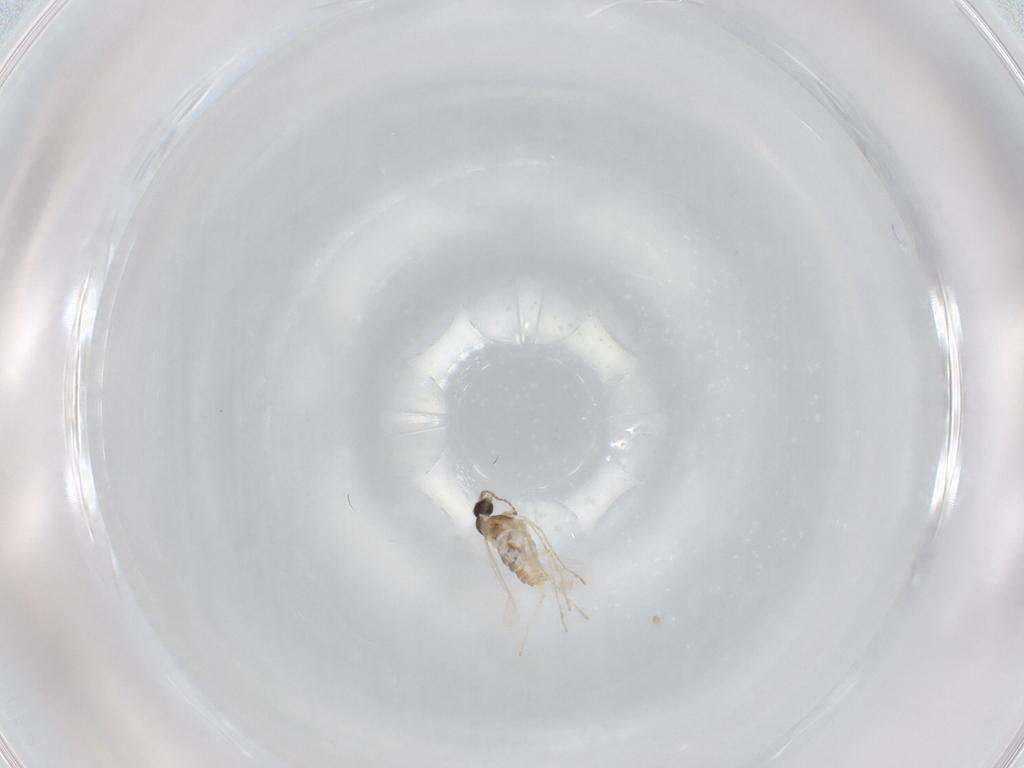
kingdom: Animalia
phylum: Arthropoda
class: Insecta
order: Diptera
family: Cecidomyiidae
